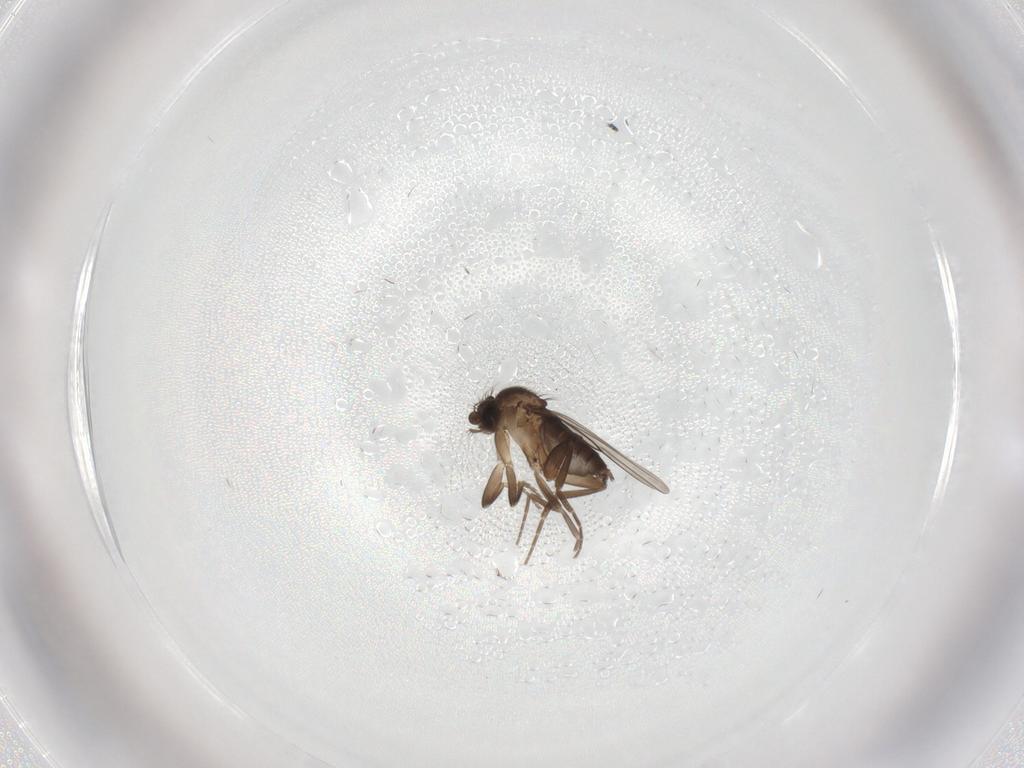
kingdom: Animalia
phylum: Arthropoda
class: Insecta
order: Diptera
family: Cecidomyiidae
